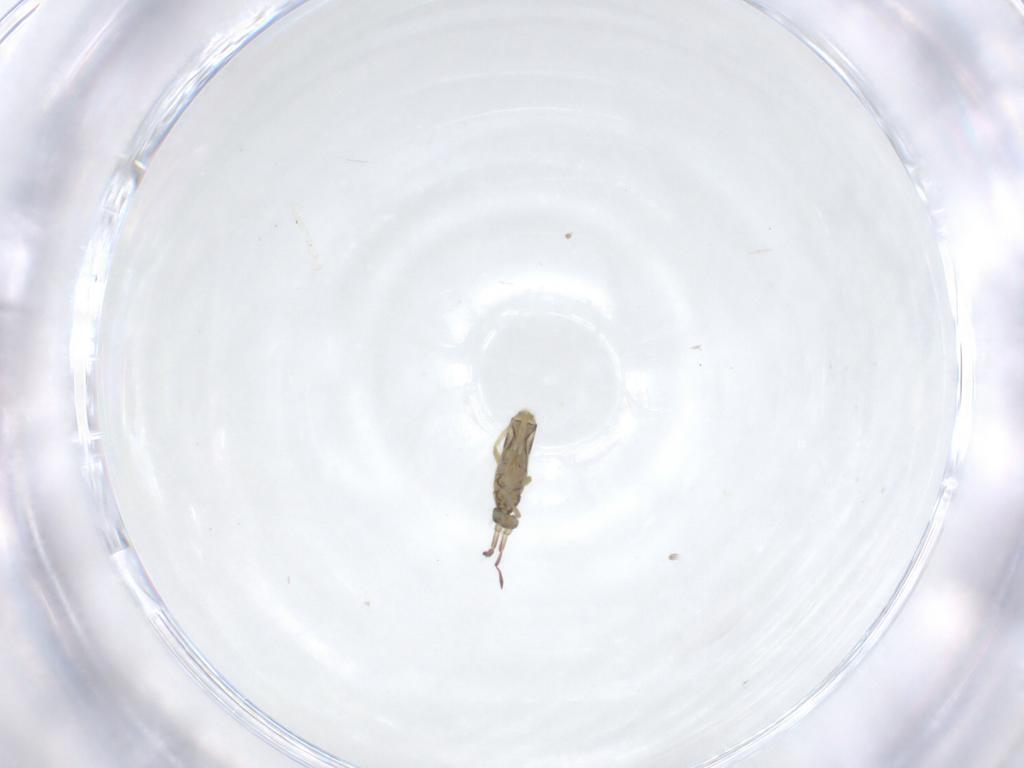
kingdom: Animalia
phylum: Arthropoda
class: Collembola
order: Entomobryomorpha
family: Entomobryidae
